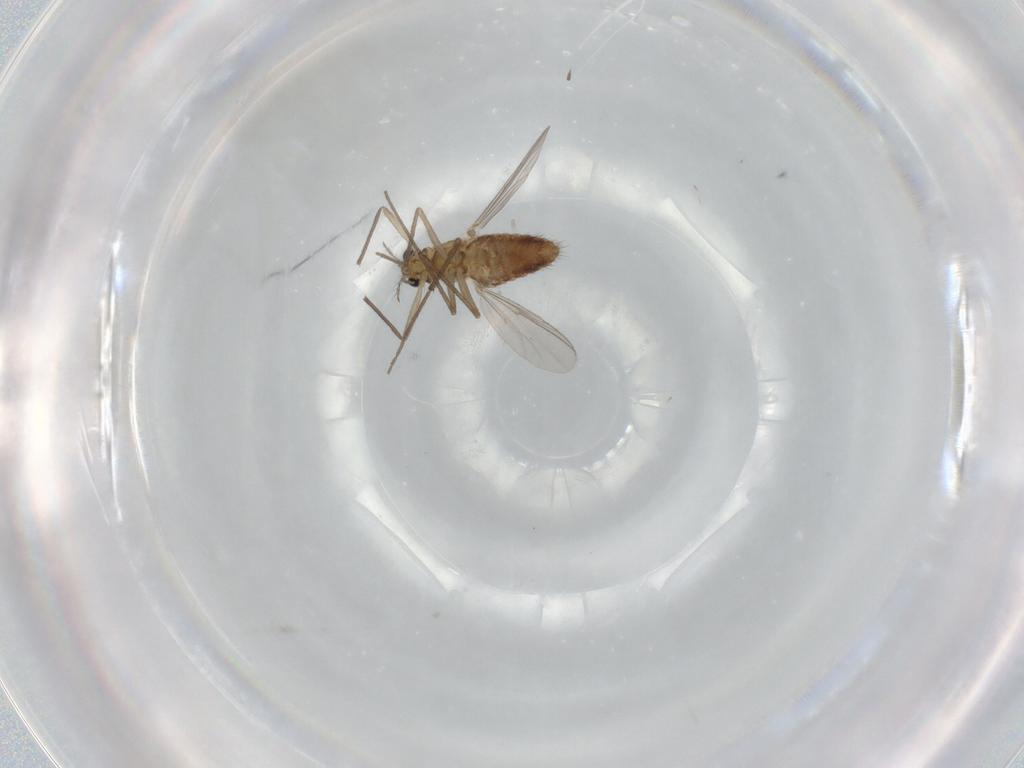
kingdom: Animalia
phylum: Arthropoda
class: Insecta
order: Diptera
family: Chironomidae
